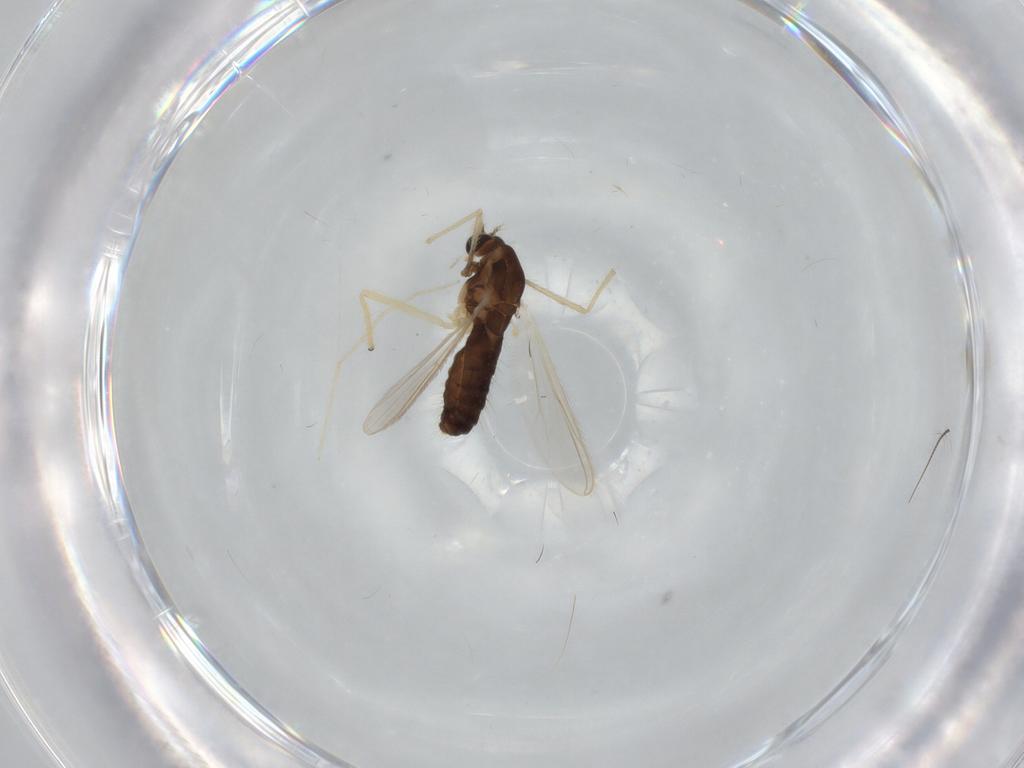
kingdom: Animalia
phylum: Arthropoda
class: Insecta
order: Diptera
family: Chironomidae
